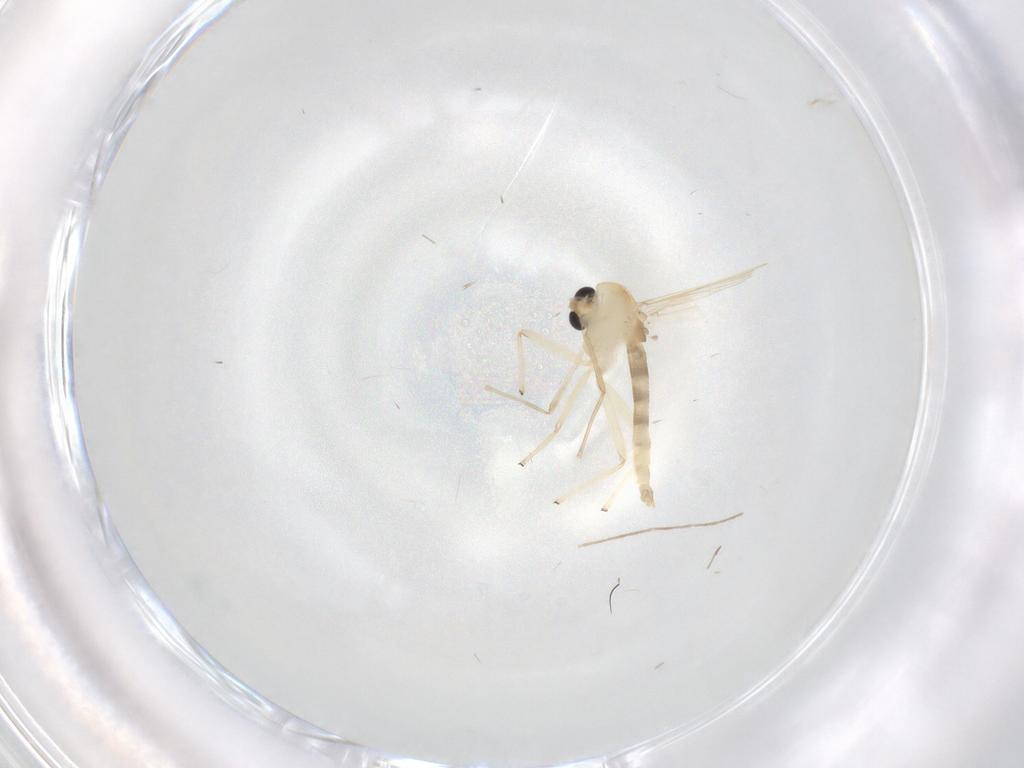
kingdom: Animalia
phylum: Arthropoda
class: Insecta
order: Diptera
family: Chironomidae
